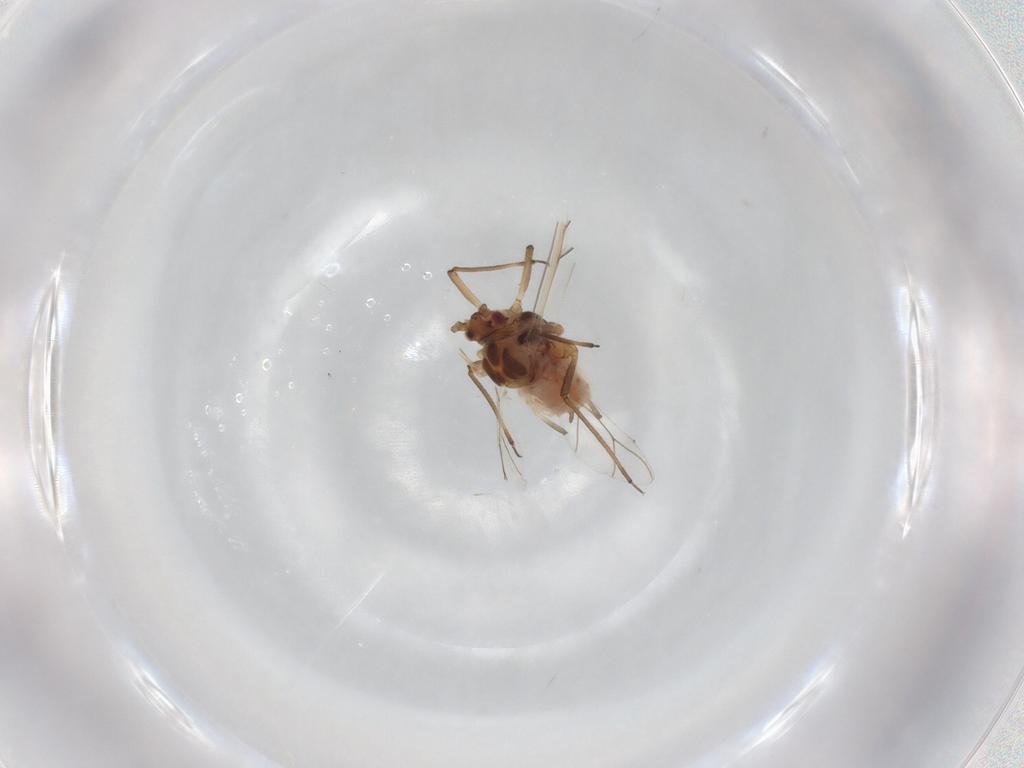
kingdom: Animalia
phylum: Arthropoda
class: Insecta
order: Hemiptera
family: Aphididae
